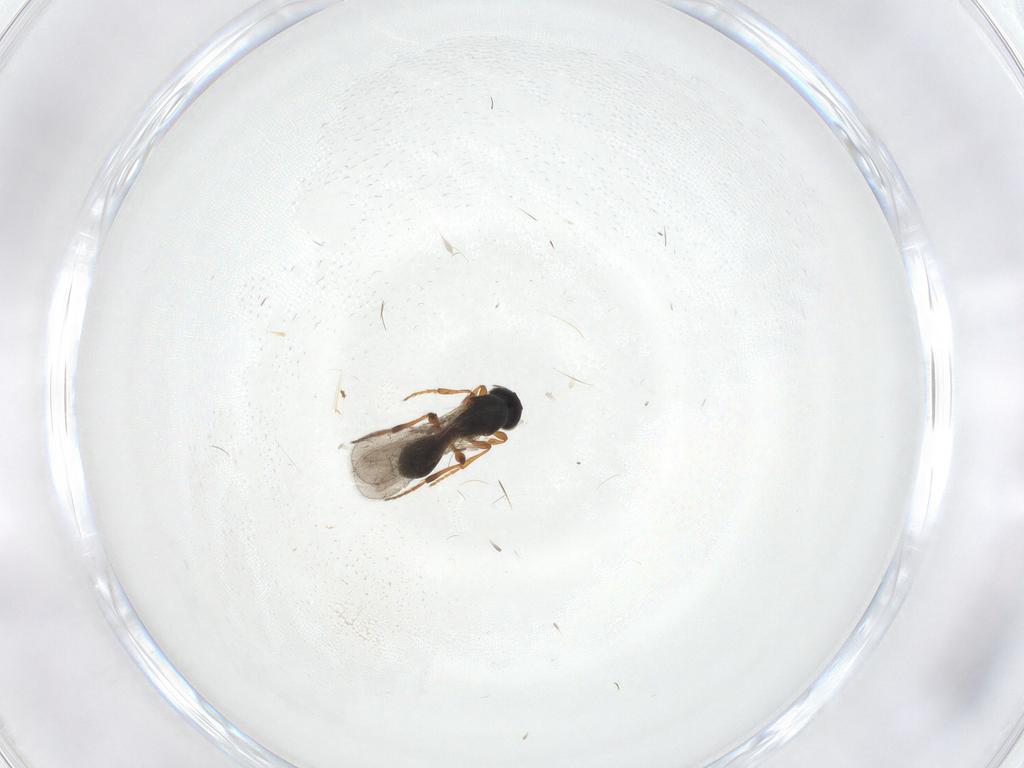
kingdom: Animalia
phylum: Arthropoda
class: Insecta
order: Hymenoptera
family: Platygastridae
